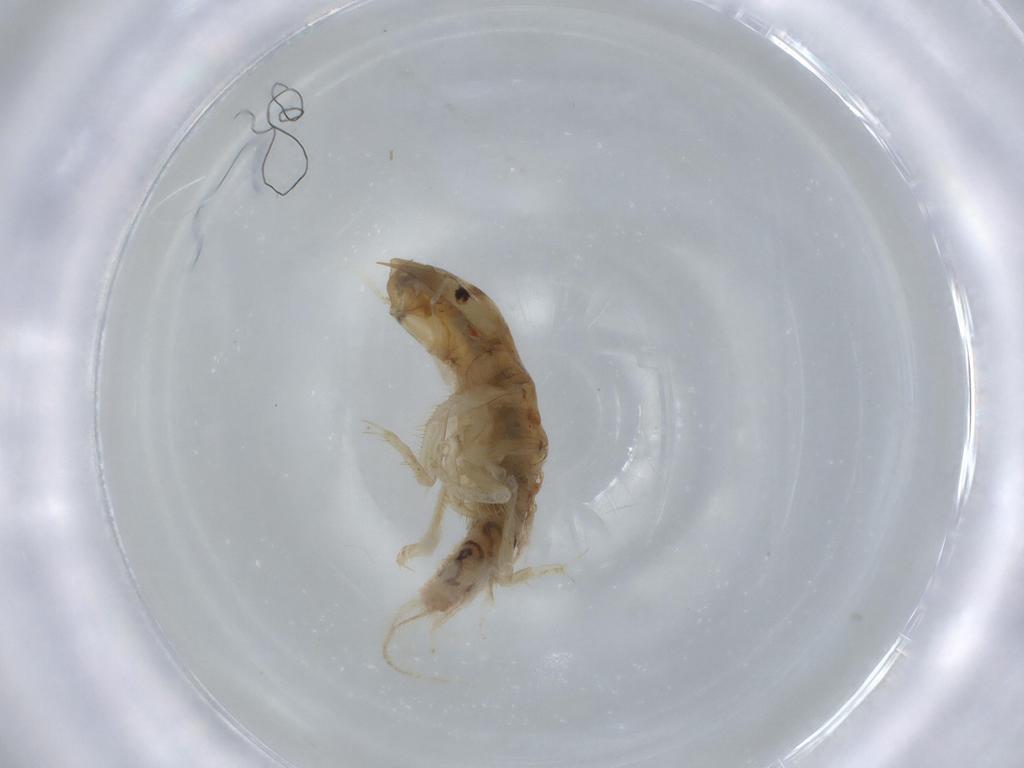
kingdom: Animalia
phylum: Arthropoda
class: Insecta
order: Megaloptera
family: Sialidae
